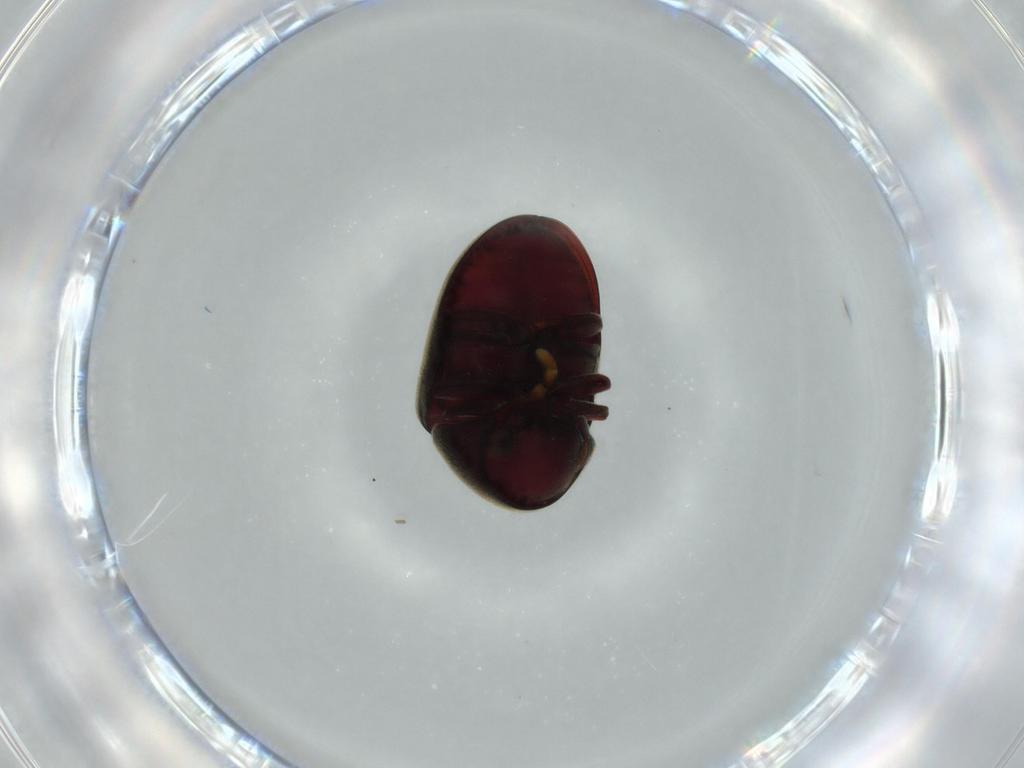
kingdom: Animalia
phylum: Arthropoda
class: Insecta
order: Coleoptera
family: Ptinidae
